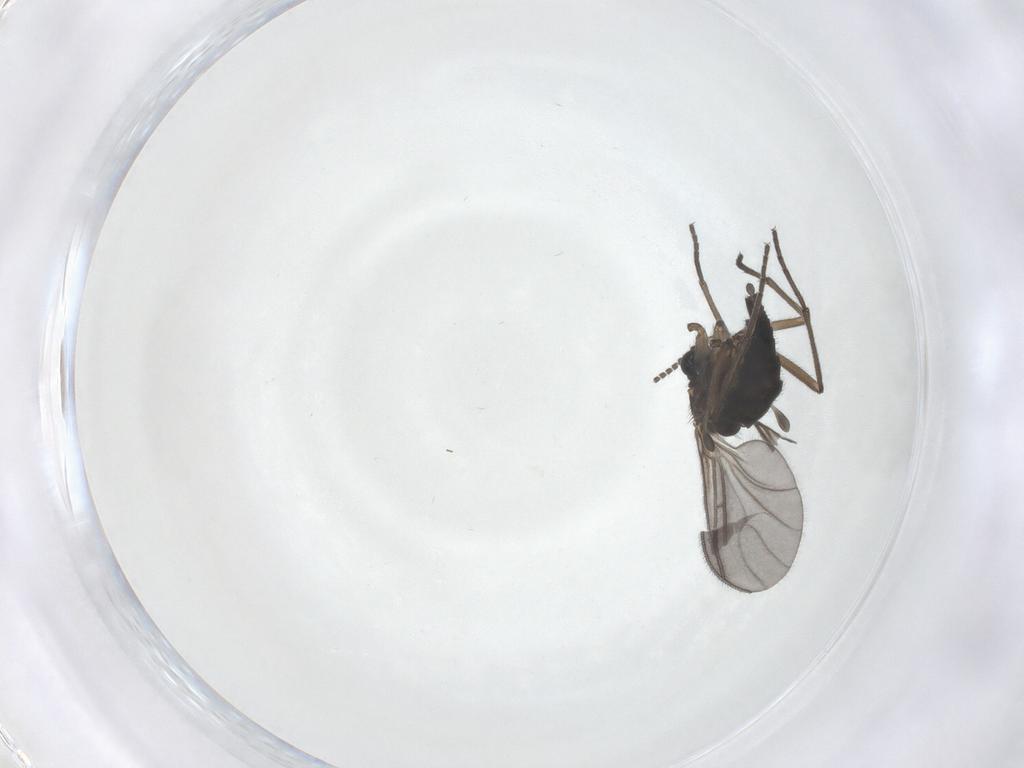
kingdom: Animalia
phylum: Arthropoda
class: Insecta
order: Diptera
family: Sciaridae
